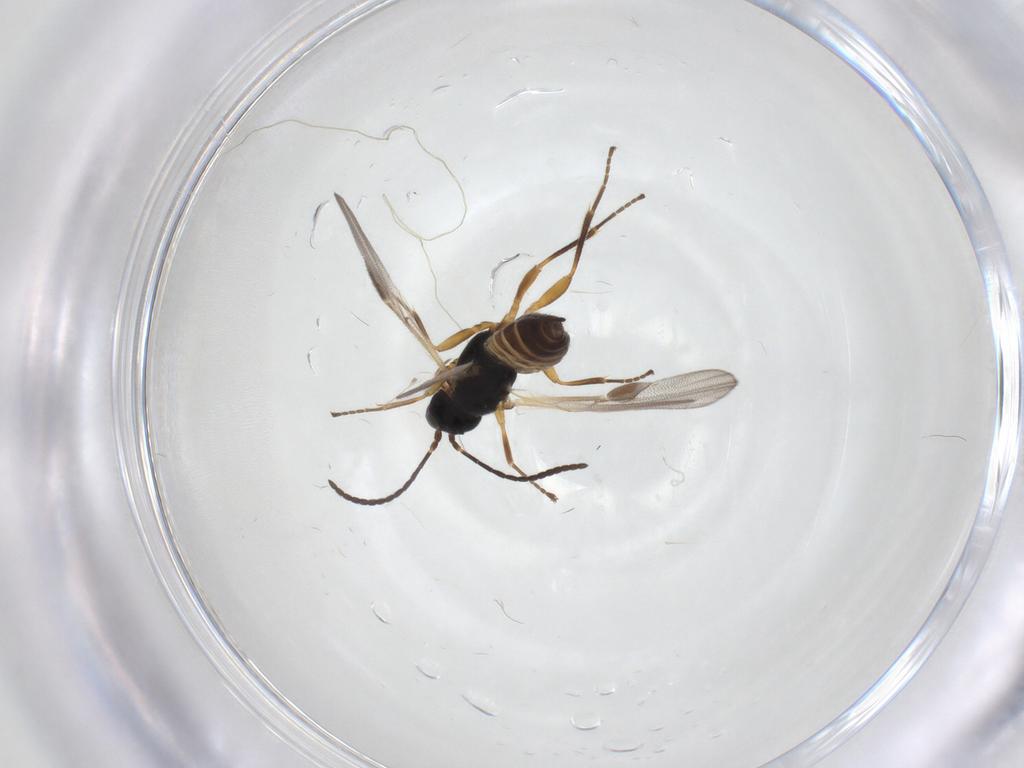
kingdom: Animalia
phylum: Arthropoda
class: Insecta
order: Hymenoptera
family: Braconidae
